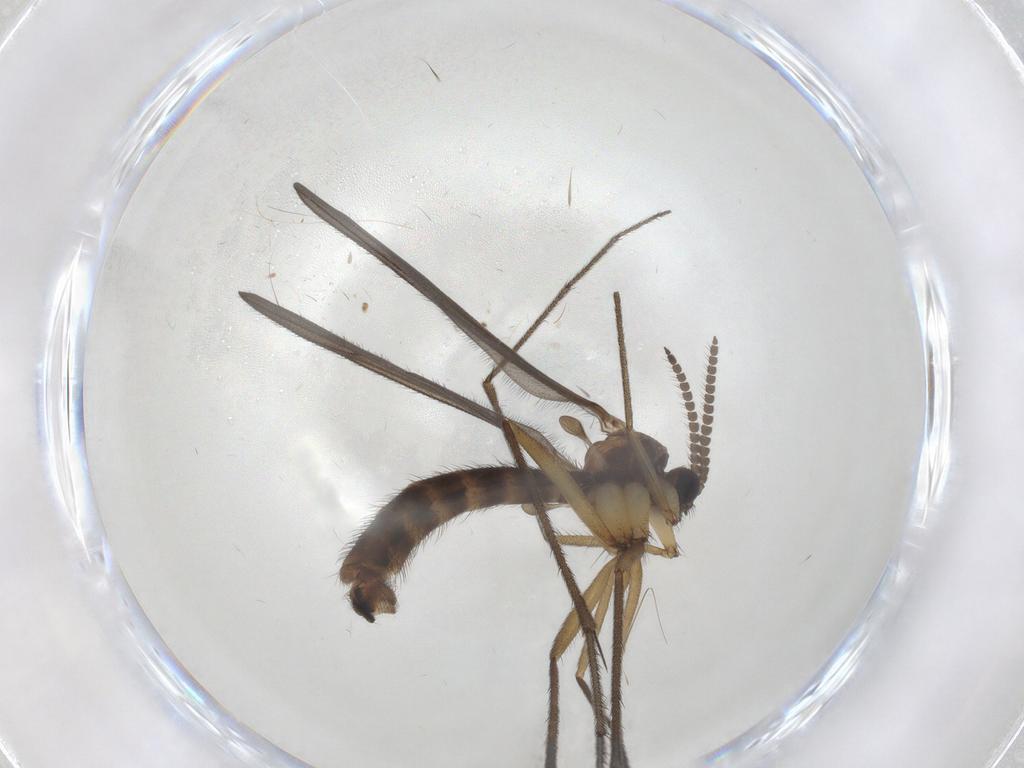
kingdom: Animalia
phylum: Arthropoda
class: Insecta
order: Diptera
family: Ditomyiidae
